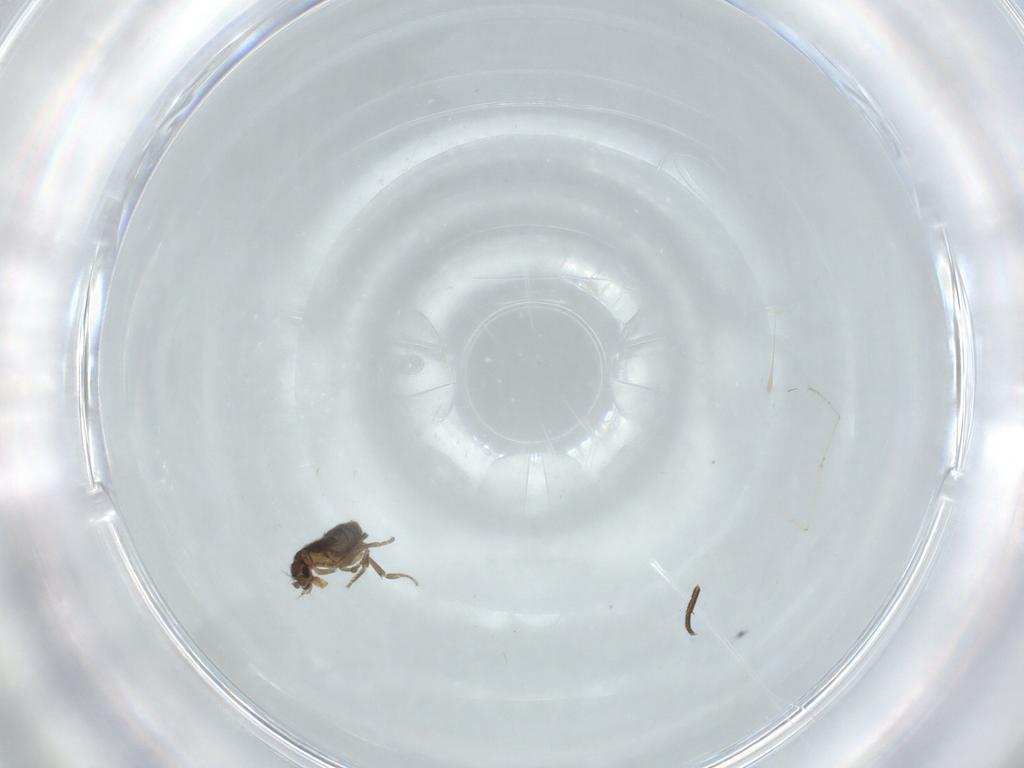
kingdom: Animalia
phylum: Arthropoda
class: Insecta
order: Diptera
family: Phoridae
